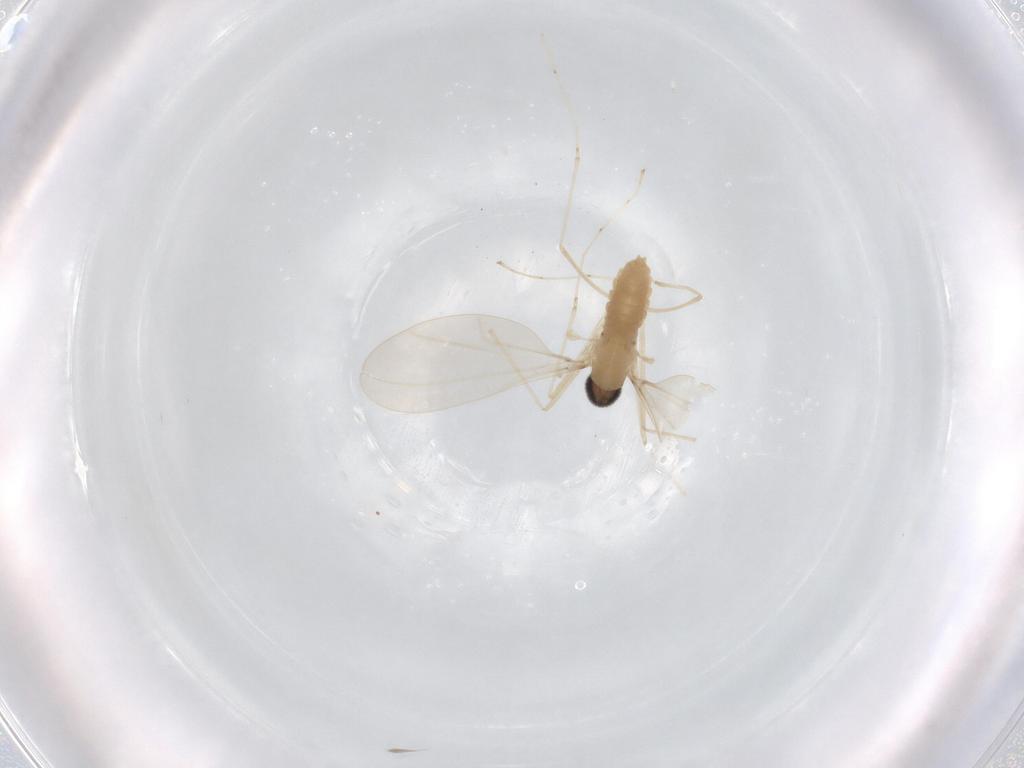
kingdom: Animalia
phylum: Arthropoda
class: Insecta
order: Diptera
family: Cecidomyiidae
